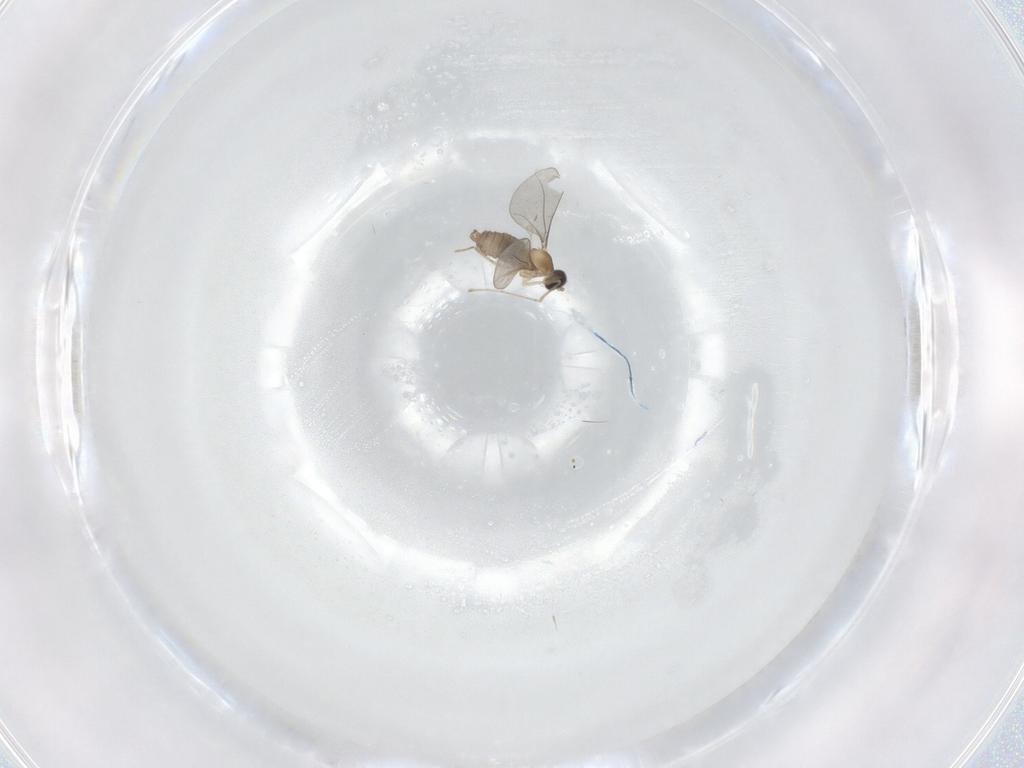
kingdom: Animalia
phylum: Arthropoda
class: Insecta
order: Diptera
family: Cecidomyiidae
